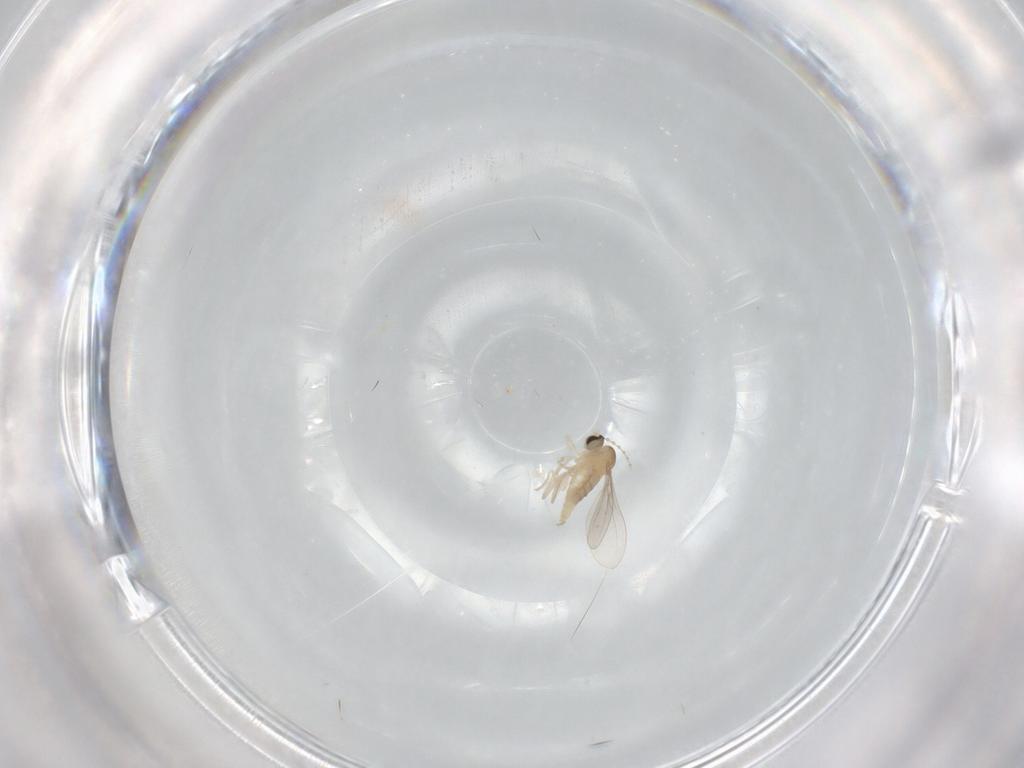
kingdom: Animalia
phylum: Arthropoda
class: Insecta
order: Diptera
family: Cecidomyiidae
